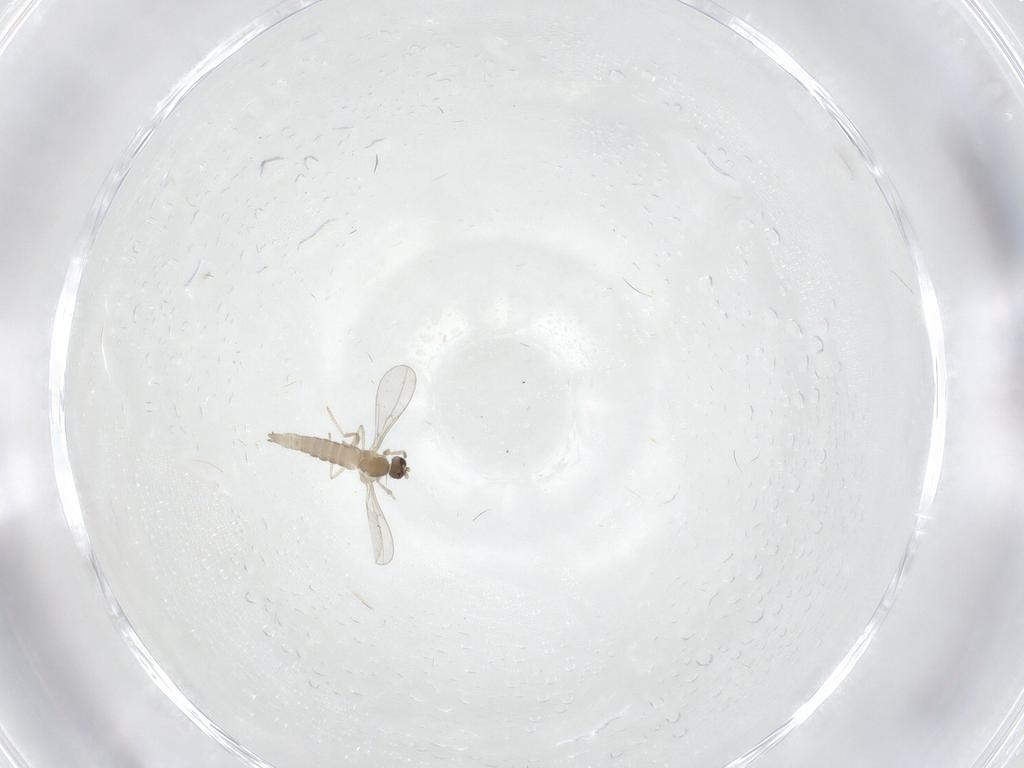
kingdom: Animalia
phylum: Arthropoda
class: Insecta
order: Diptera
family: Cecidomyiidae
